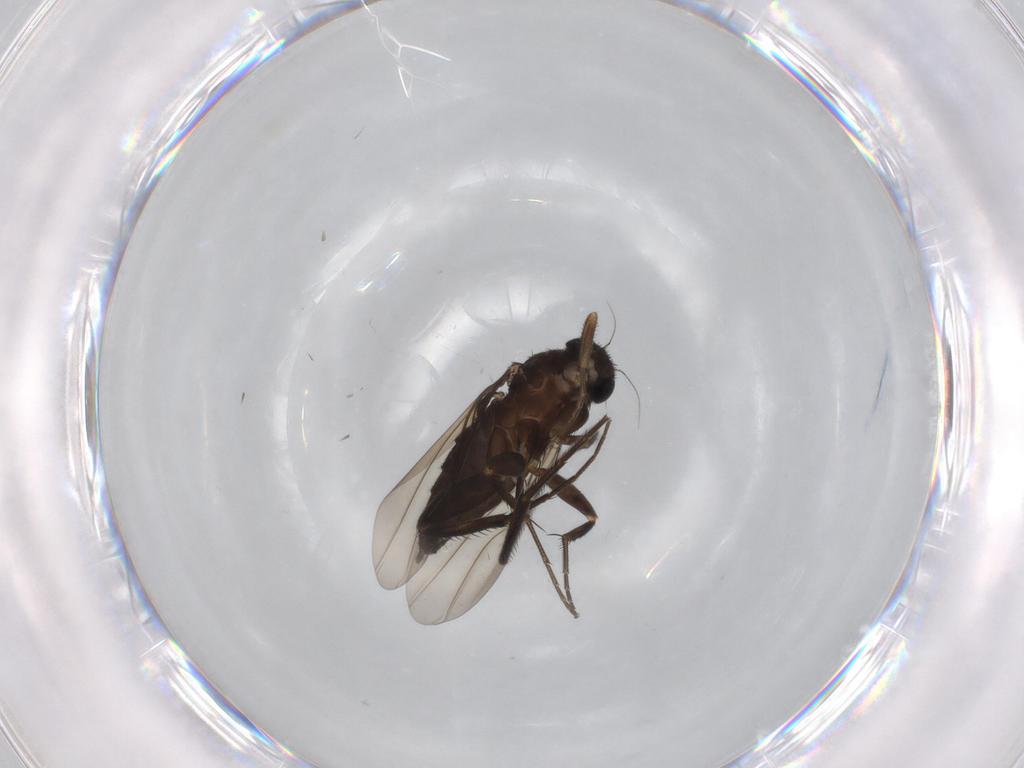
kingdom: Animalia
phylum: Arthropoda
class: Insecta
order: Diptera
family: Phoridae
